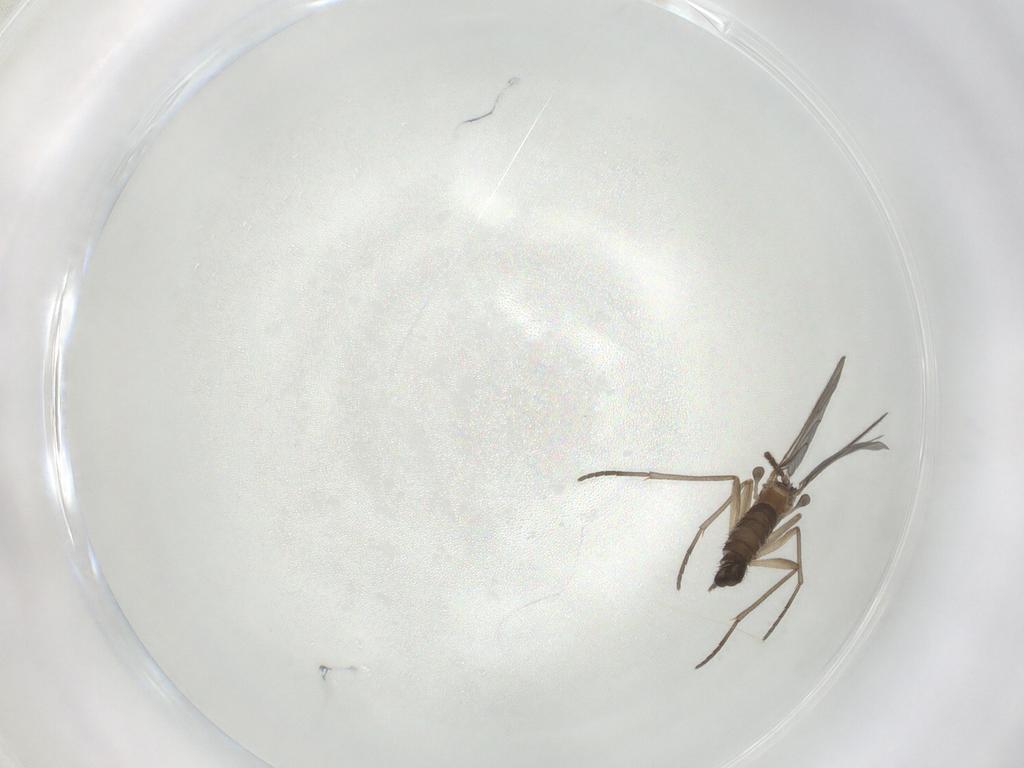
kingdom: Animalia
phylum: Arthropoda
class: Insecta
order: Diptera
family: Sciaridae
